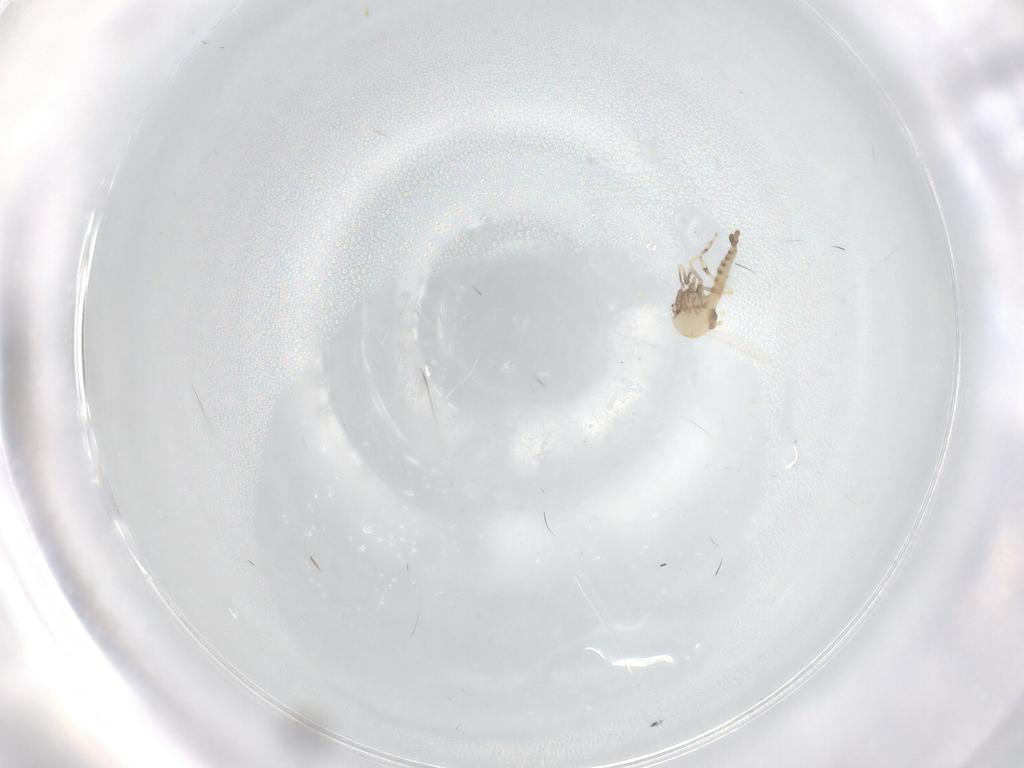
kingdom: Animalia
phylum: Arthropoda
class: Insecta
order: Diptera
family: Ceratopogonidae
